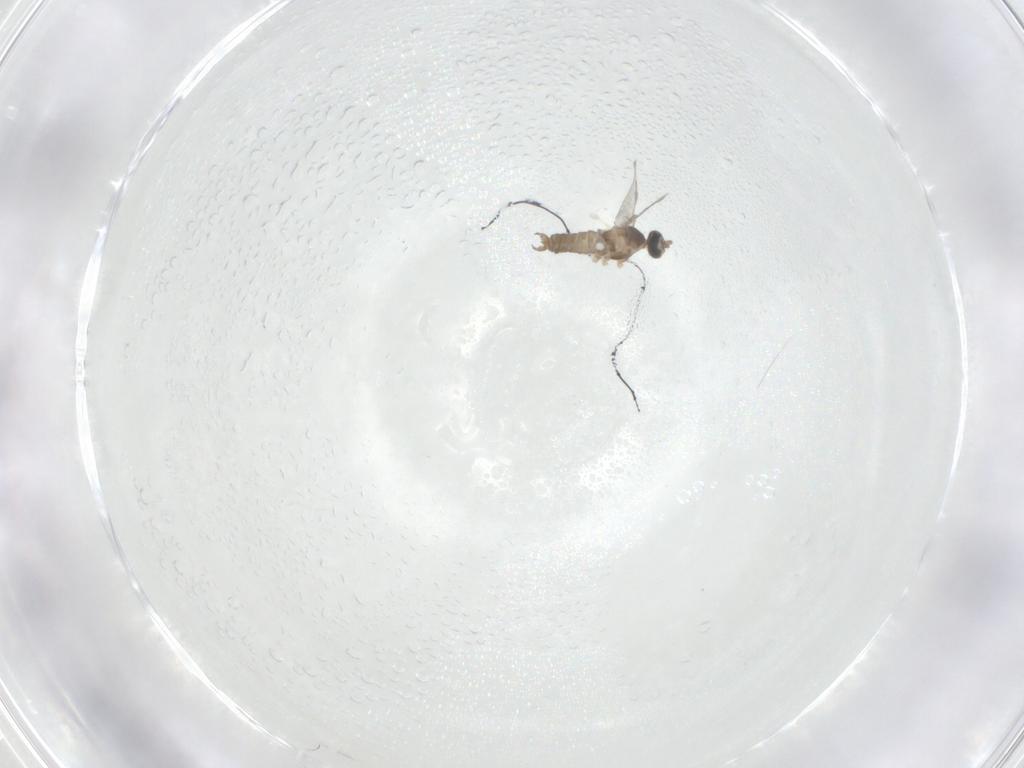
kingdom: Animalia
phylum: Arthropoda
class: Insecta
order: Diptera
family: Cecidomyiidae
